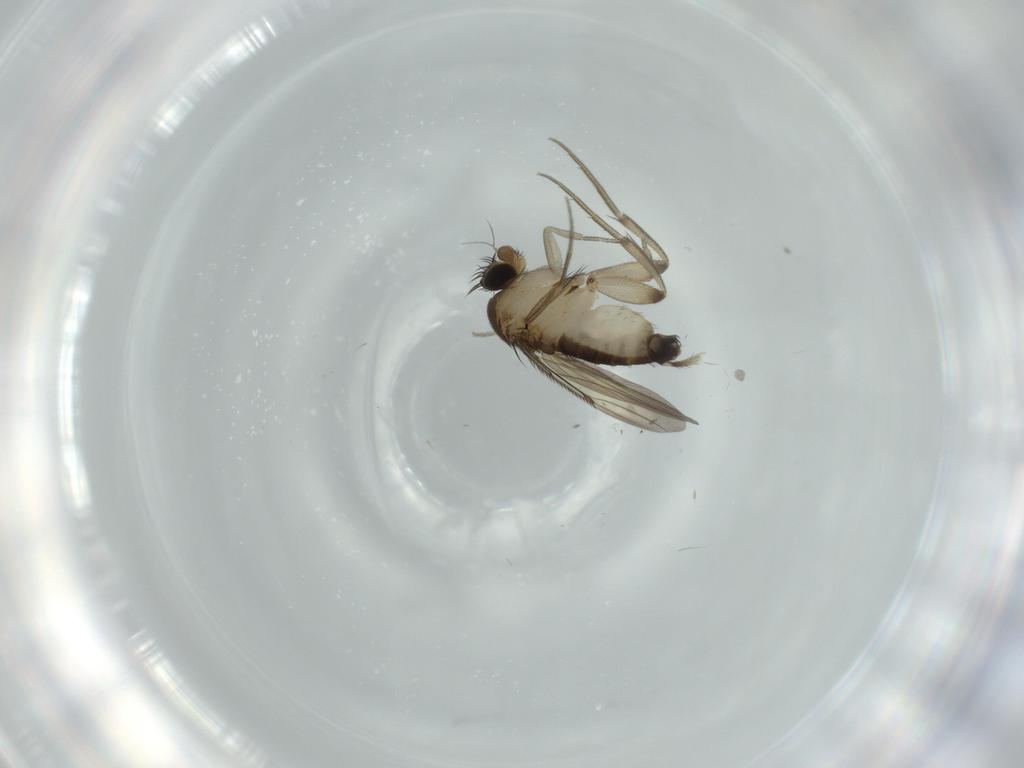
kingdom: Animalia
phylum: Arthropoda
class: Insecta
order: Diptera
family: Phoridae
